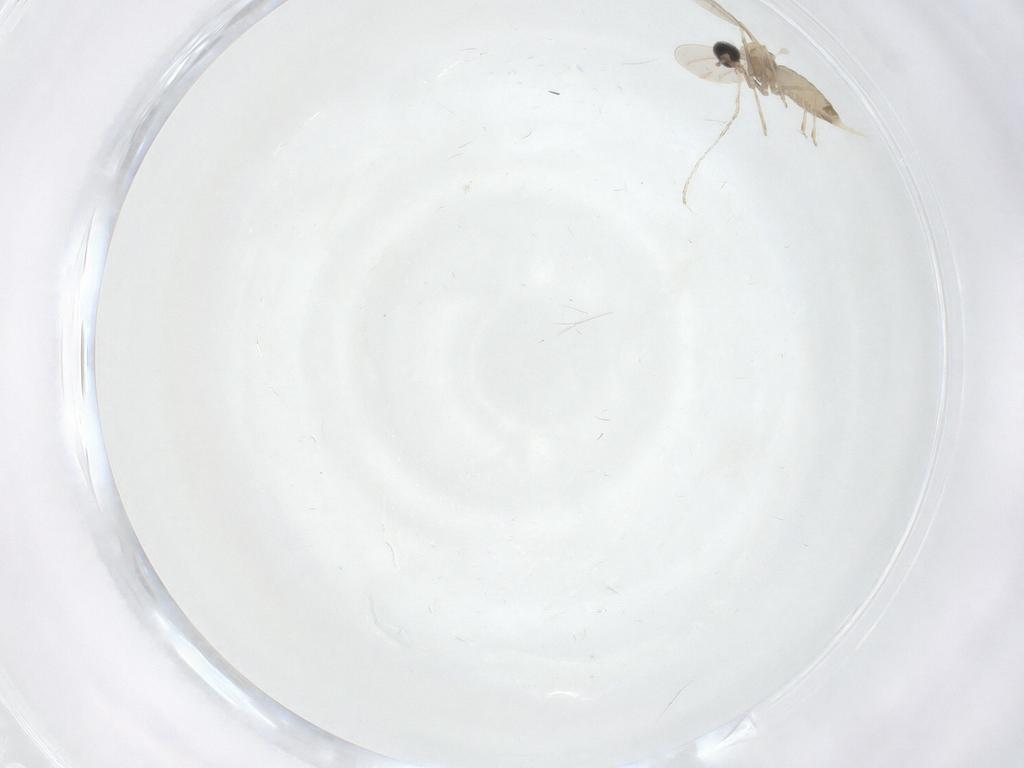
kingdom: Animalia
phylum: Arthropoda
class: Insecta
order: Diptera
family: Cecidomyiidae
